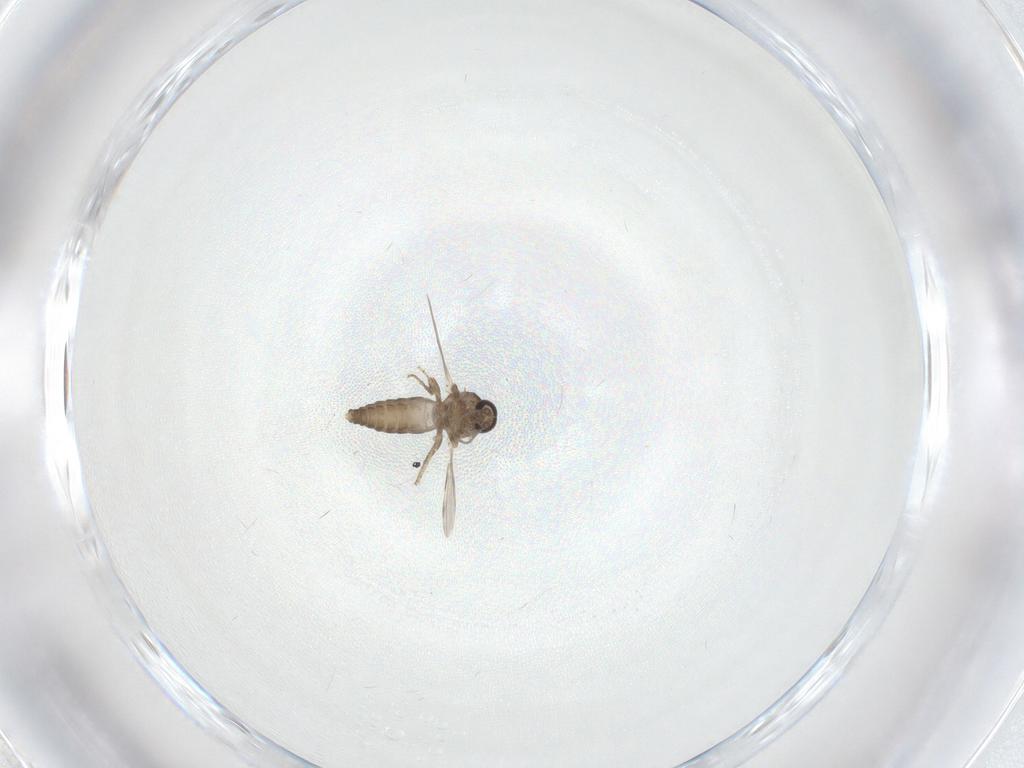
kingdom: Animalia
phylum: Arthropoda
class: Insecta
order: Diptera
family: Ceratopogonidae
